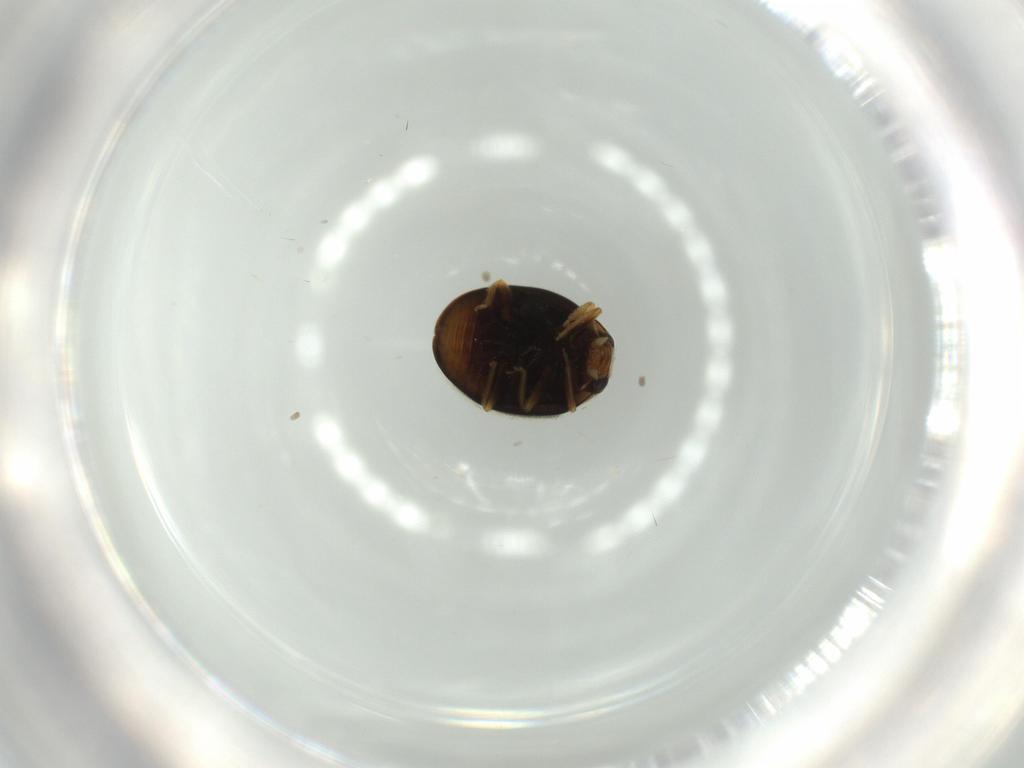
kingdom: Animalia
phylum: Arthropoda
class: Insecta
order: Coleoptera
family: Coccinellidae
